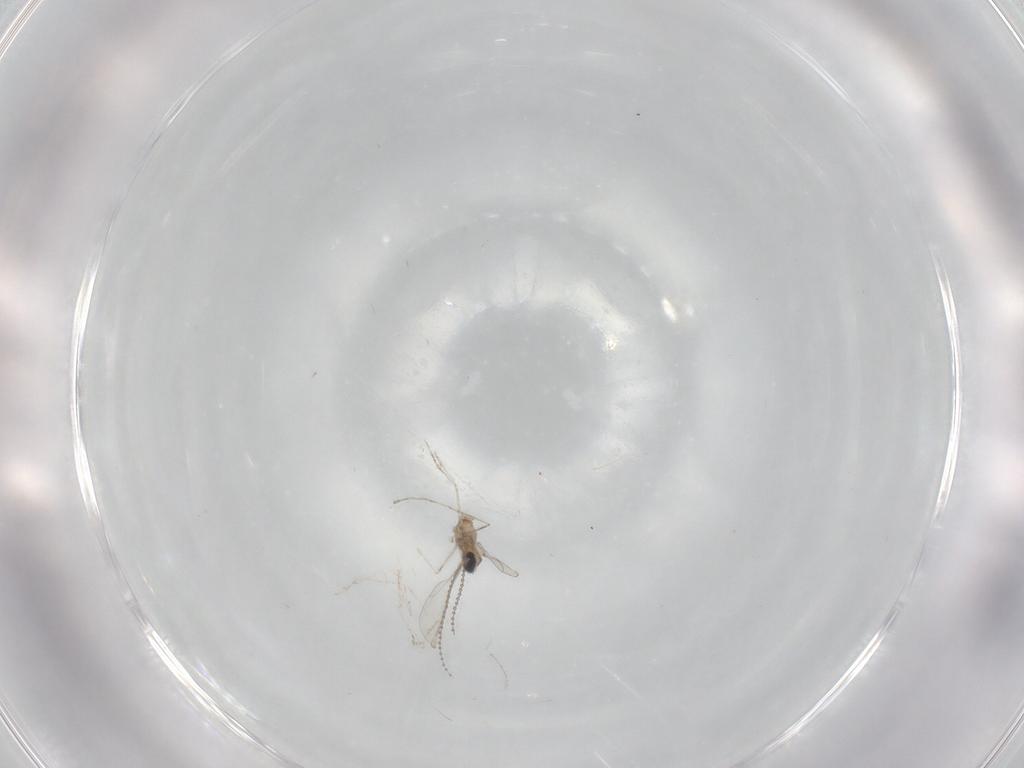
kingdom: Animalia
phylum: Arthropoda
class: Insecta
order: Diptera
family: Cecidomyiidae
